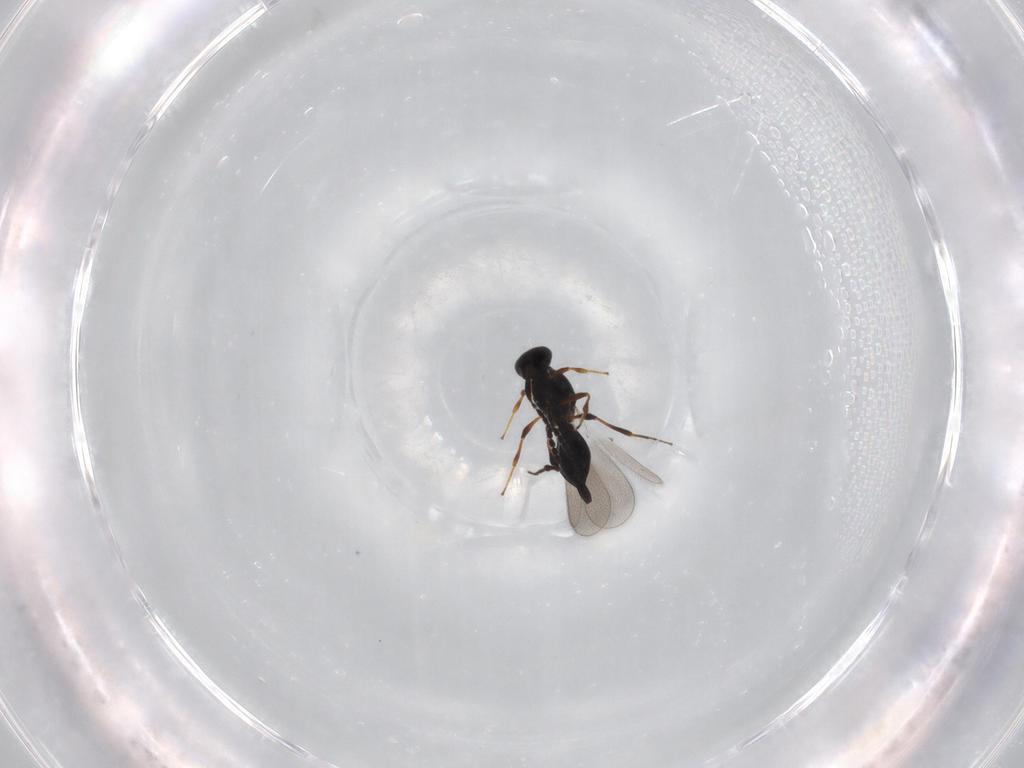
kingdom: Animalia
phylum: Arthropoda
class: Insecta
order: Hymenoptera
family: Platygastridae
